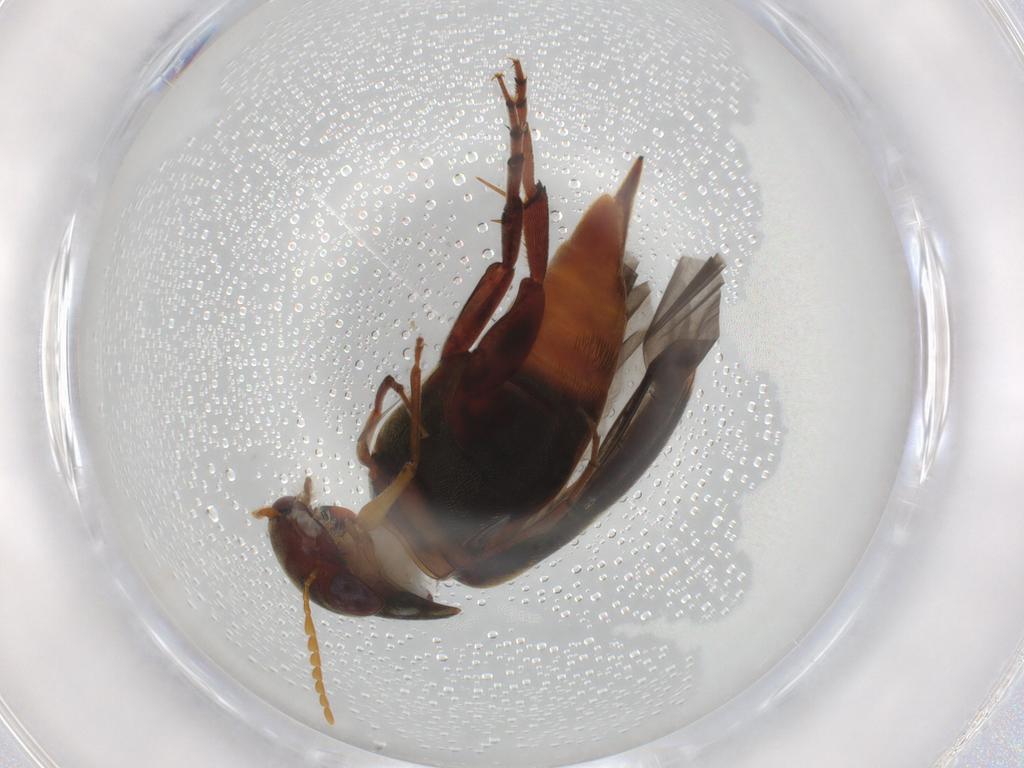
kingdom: Animalia
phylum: Arthropoda
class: Insecta
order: Coleoptera
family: Mordellidae
